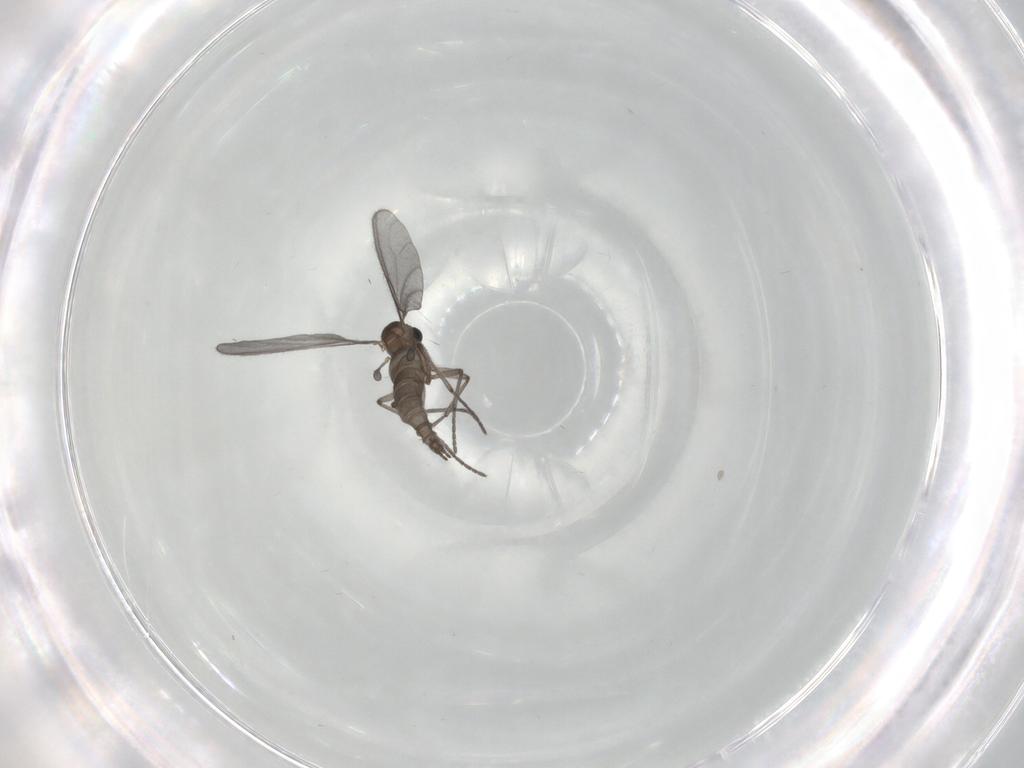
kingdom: Animalia
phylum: Arthropoda
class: Insecta
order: Diptera
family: Sciaridae
